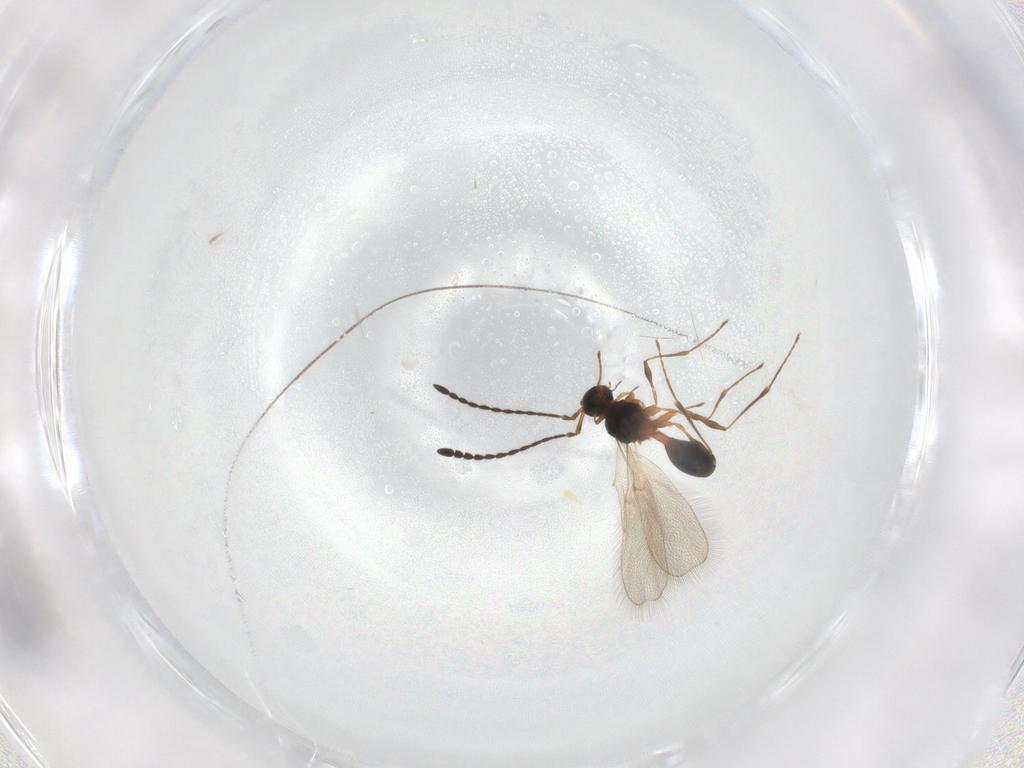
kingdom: Animalia
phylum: Arthropoda
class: Insecta
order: Hymenoptera
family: Diapriidae
